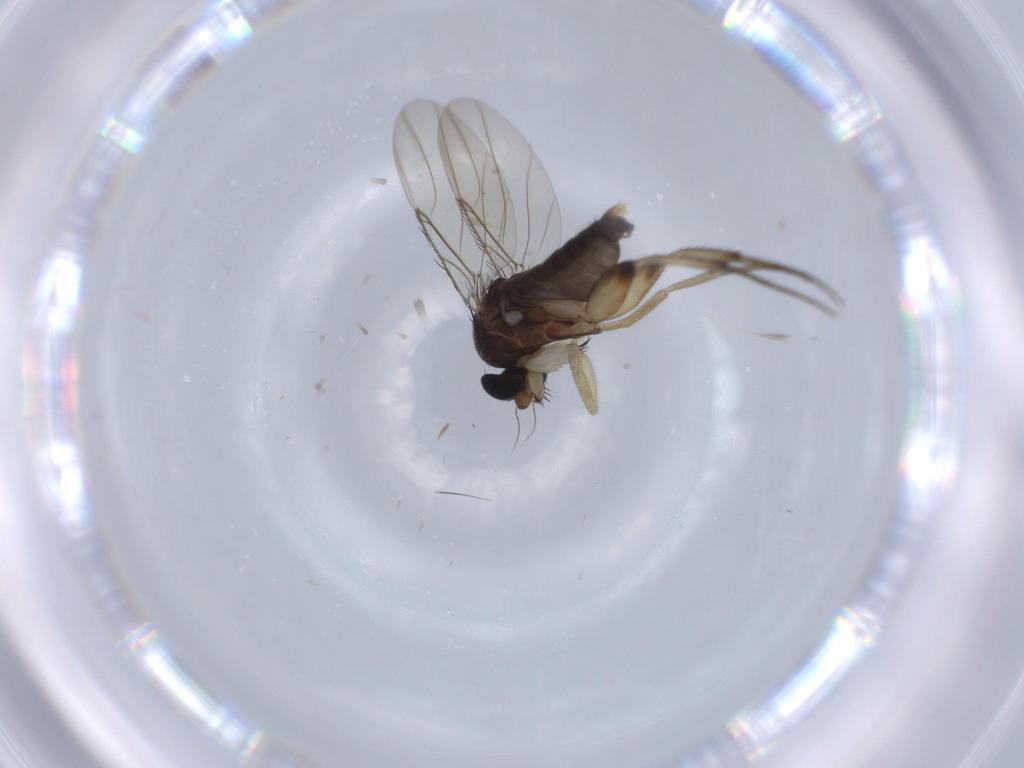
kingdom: Animalia
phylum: Arthropoda
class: Insecta
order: Diptera
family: Phoridae
